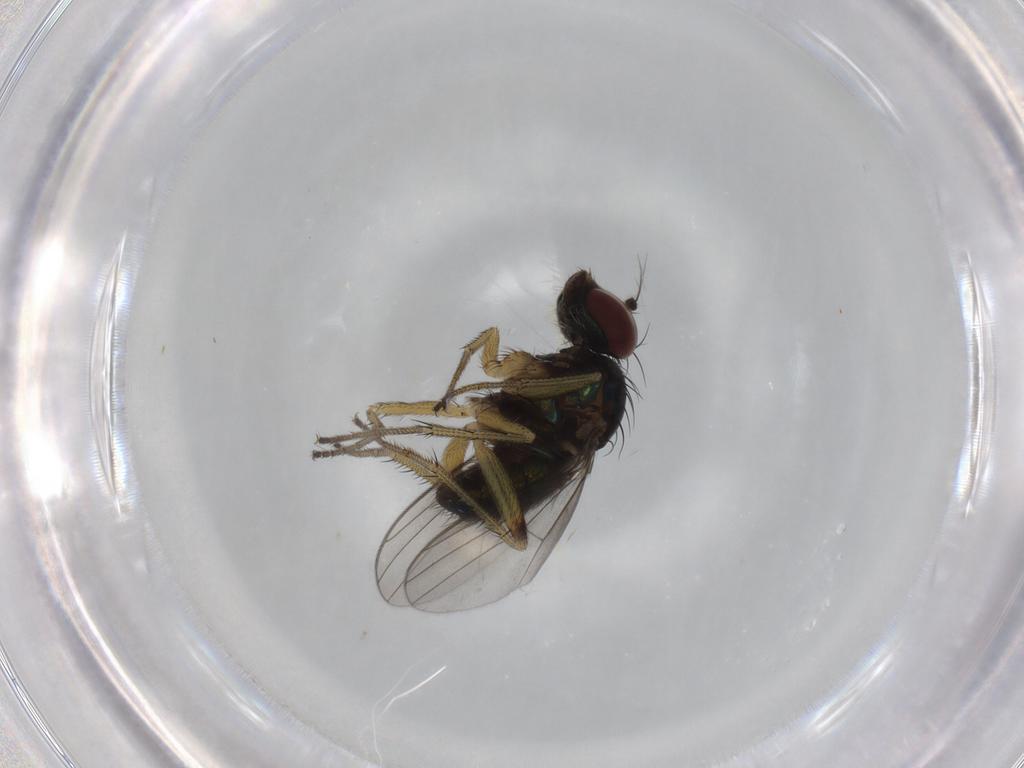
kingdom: Animalia
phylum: Arthropoda
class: Insecta
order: Diptera
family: Dolichopodidae
